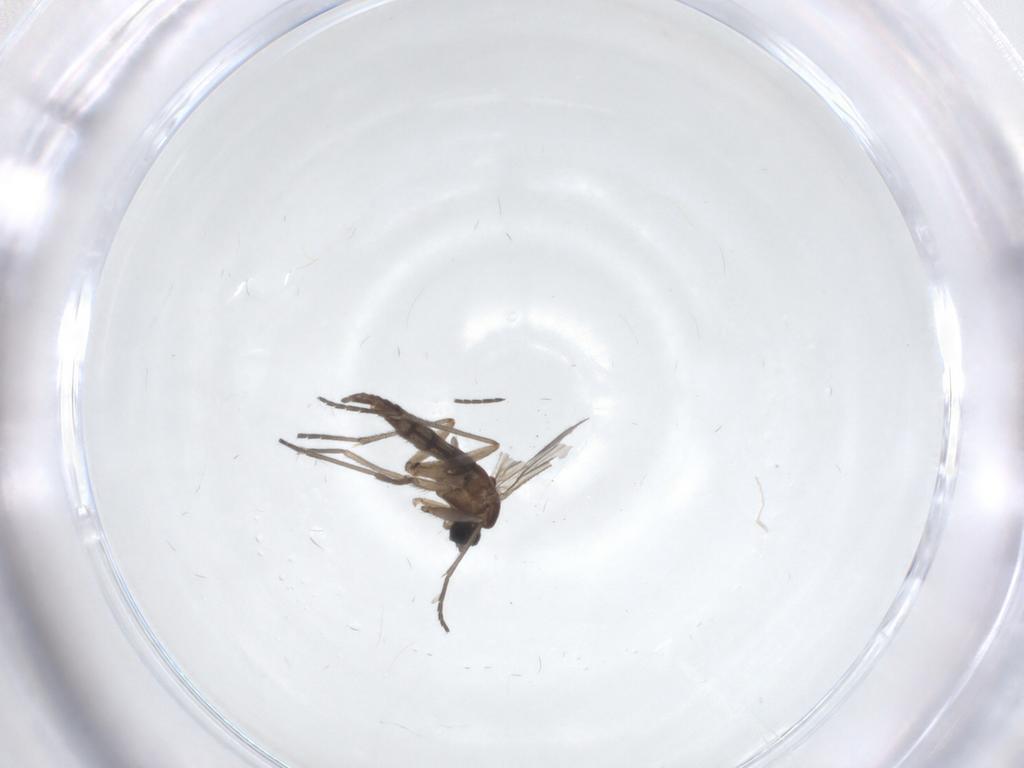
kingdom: Animalia
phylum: Arthropoda
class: Insecta
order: Diptera
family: Sciaridae
